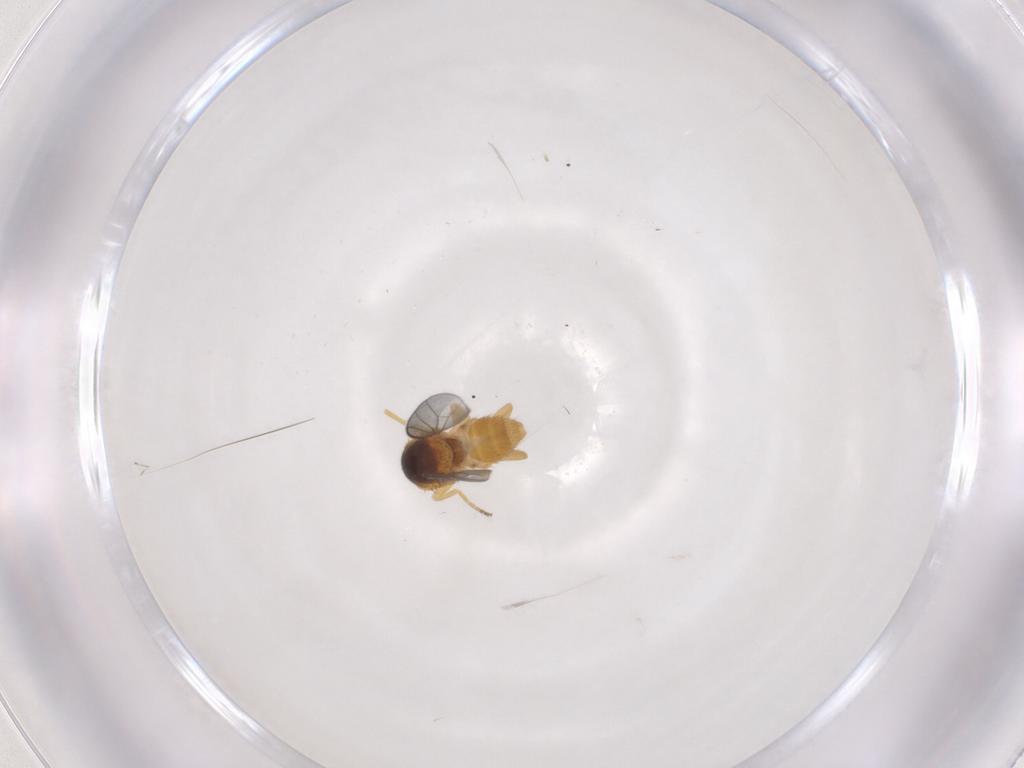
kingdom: Animalia
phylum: Arthropoda
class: Insecta
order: Diptera
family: Chloropidae
